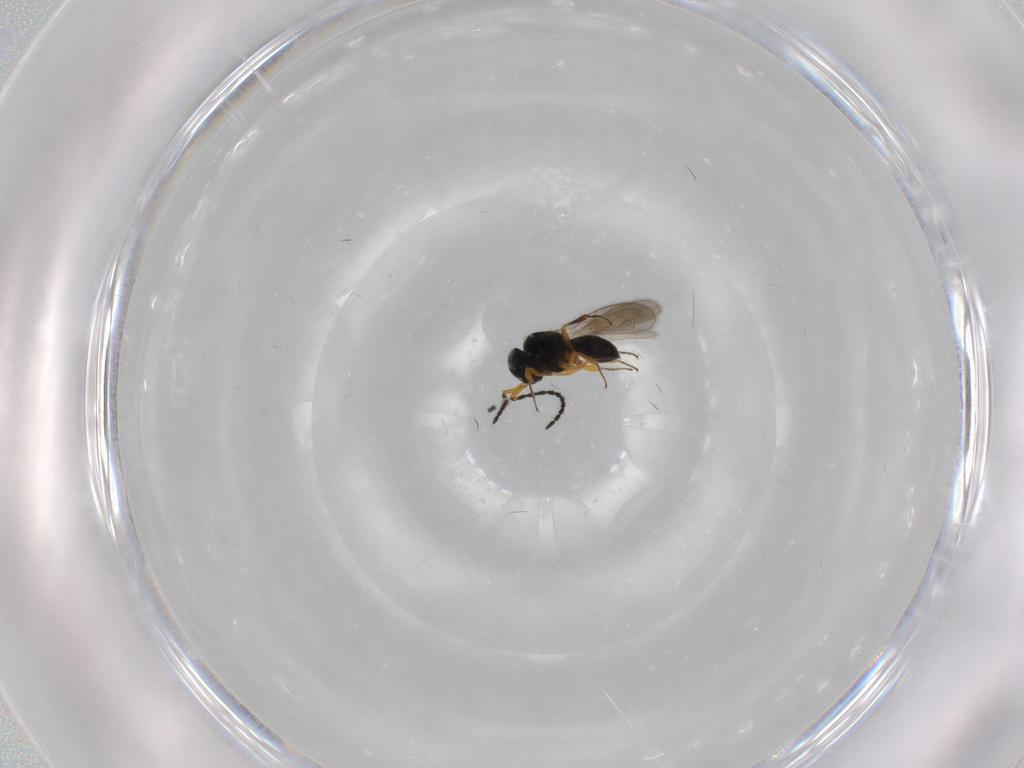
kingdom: Animalia
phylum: Arthropoda
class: Insecta
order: Hymenoptera
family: Scelionidae
